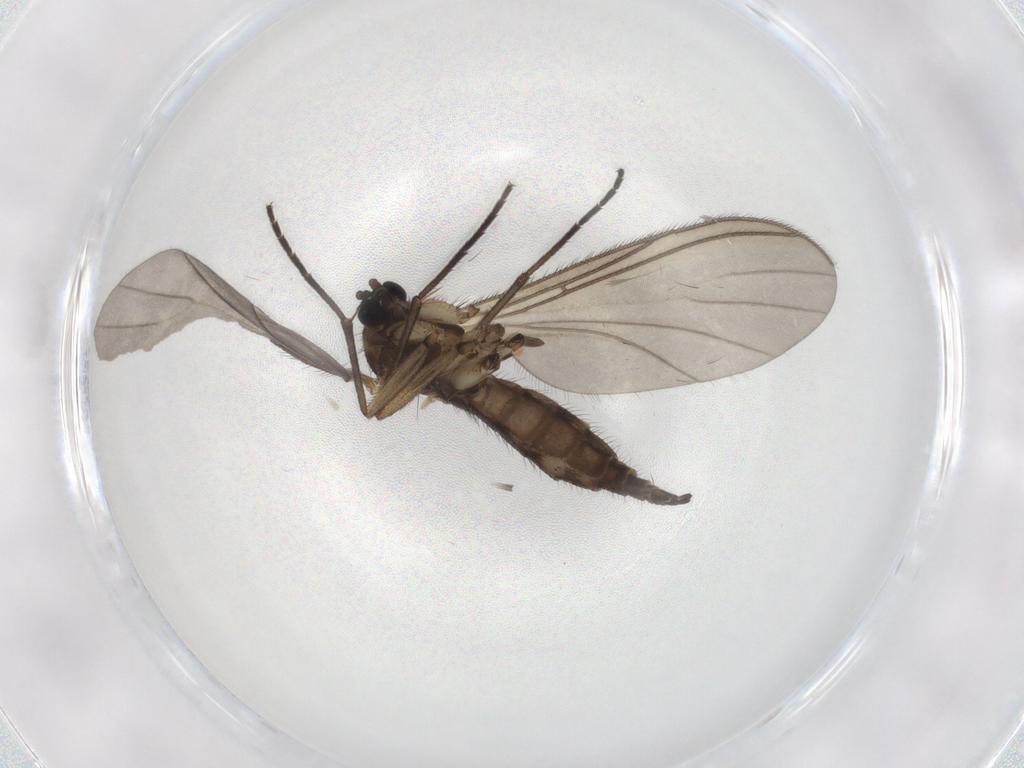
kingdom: Animalia
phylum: Arthropoda
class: Insecta
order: Diptera
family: Sciaridae
